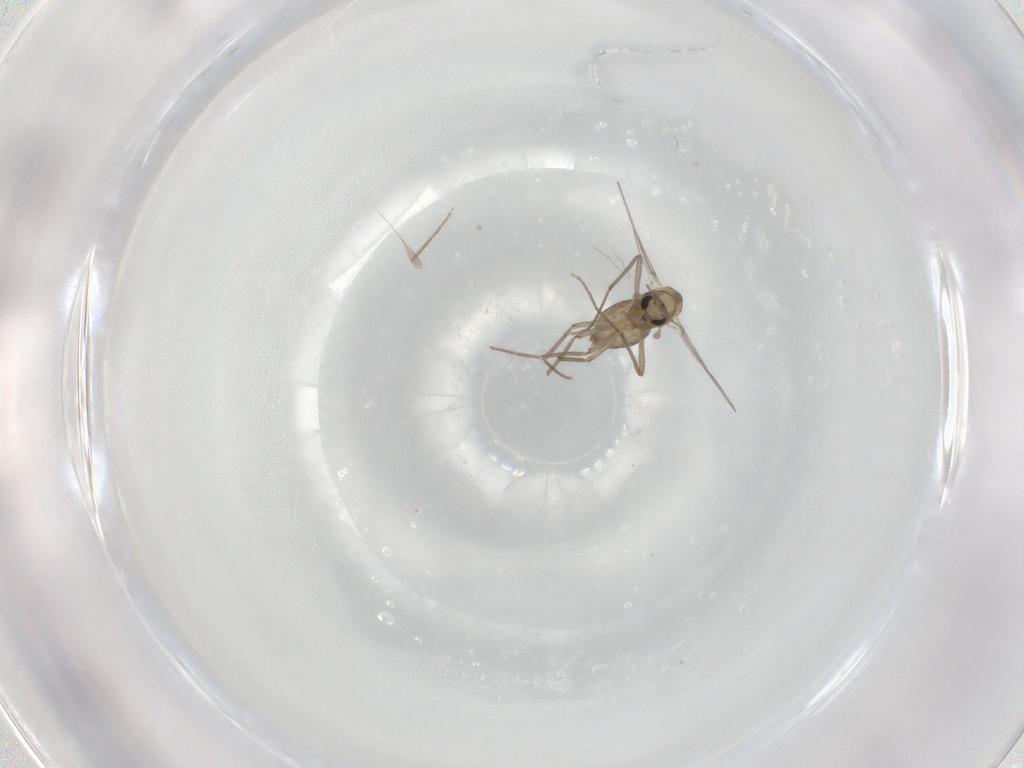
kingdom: Animalia
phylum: Arthropoda
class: Insecta
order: Diptera
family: Chironomidae
